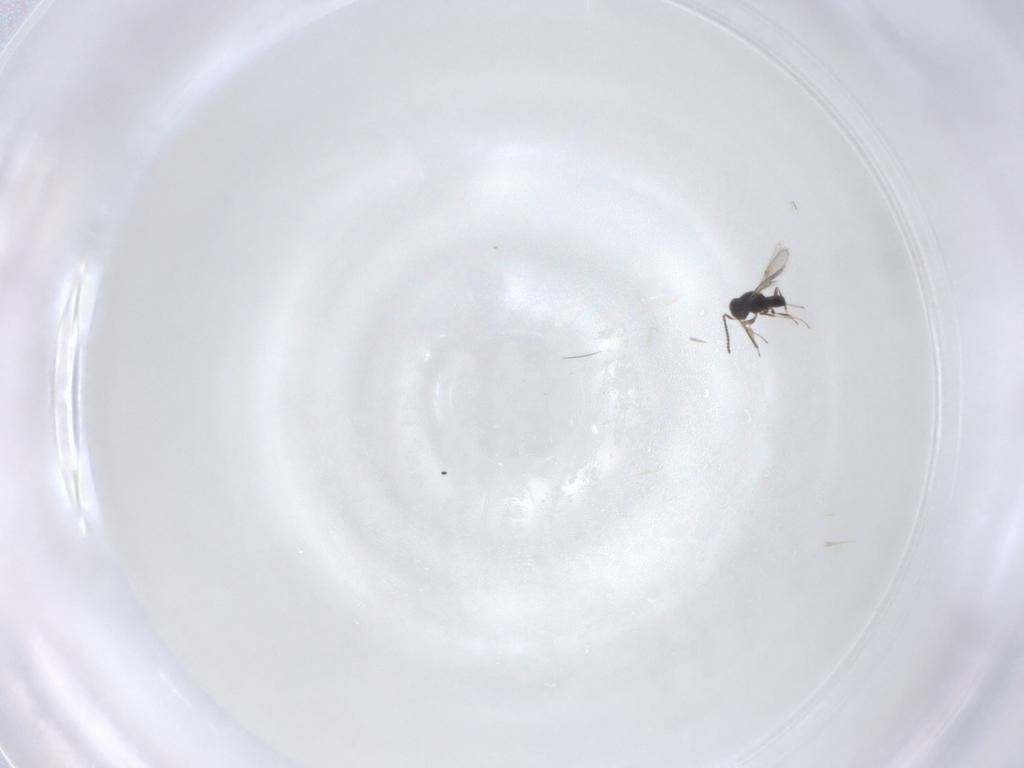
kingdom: Animalia
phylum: Arthropoda
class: Insecta
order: Hymenoptera
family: Scelionidae
